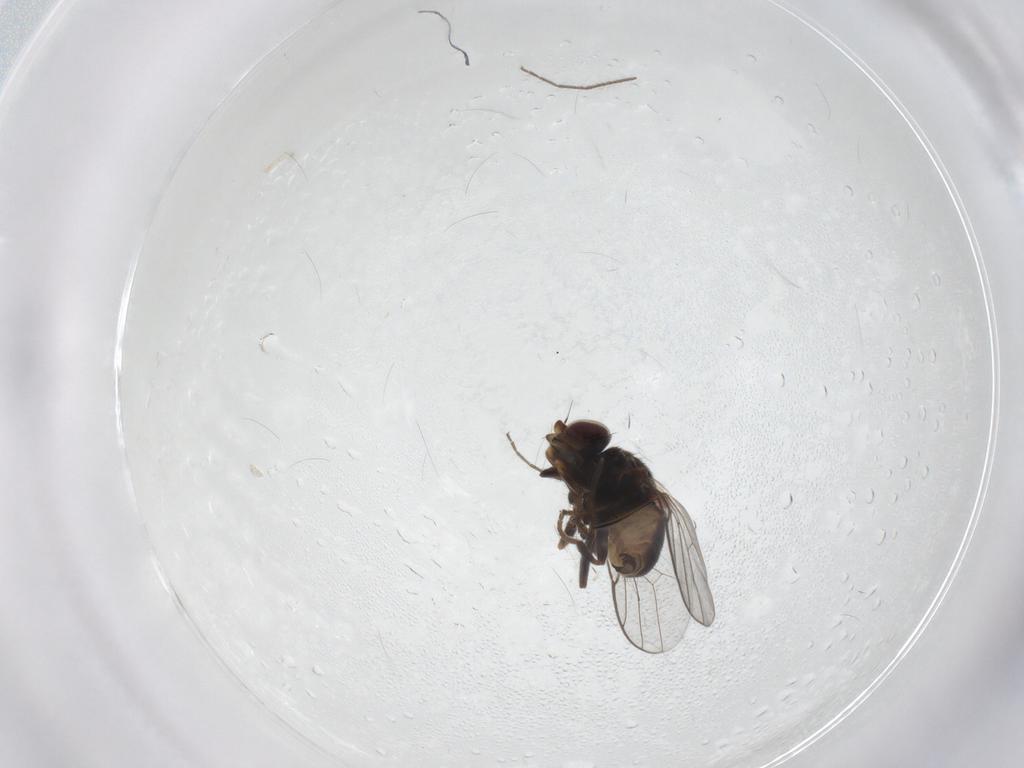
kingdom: Animalia
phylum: Arthropoda
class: Insecta
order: Diptera
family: Chloropidae
